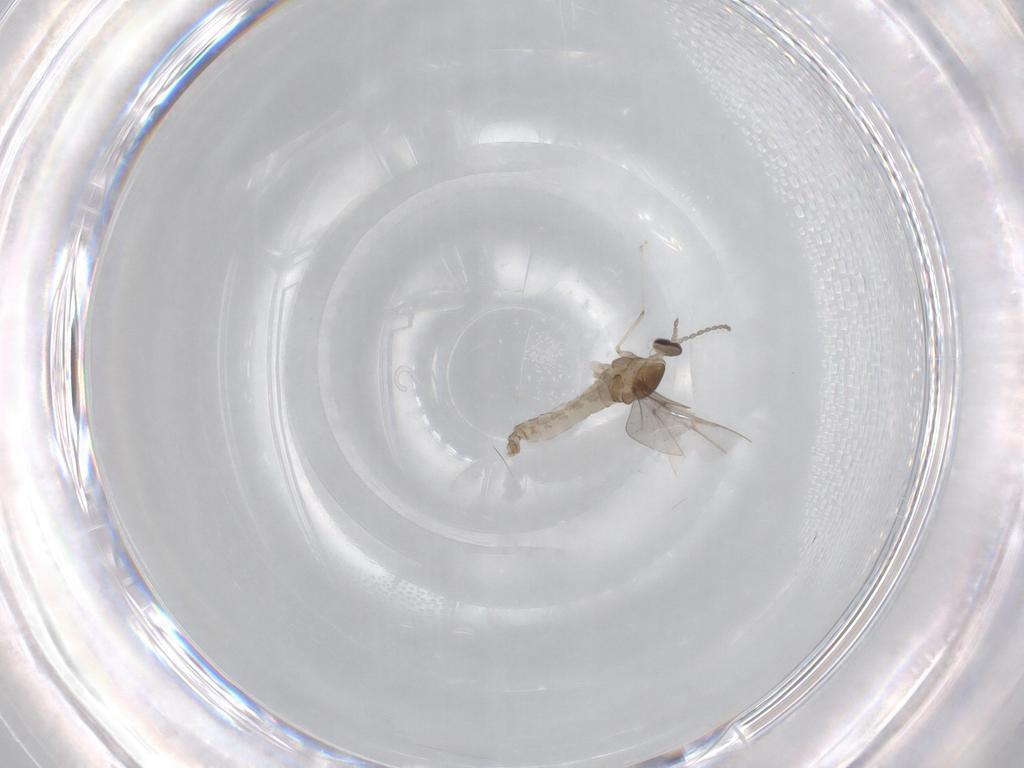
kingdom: Animalia
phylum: Arthropoda
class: Insecta
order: Diptera
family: Cecidomyiidae
